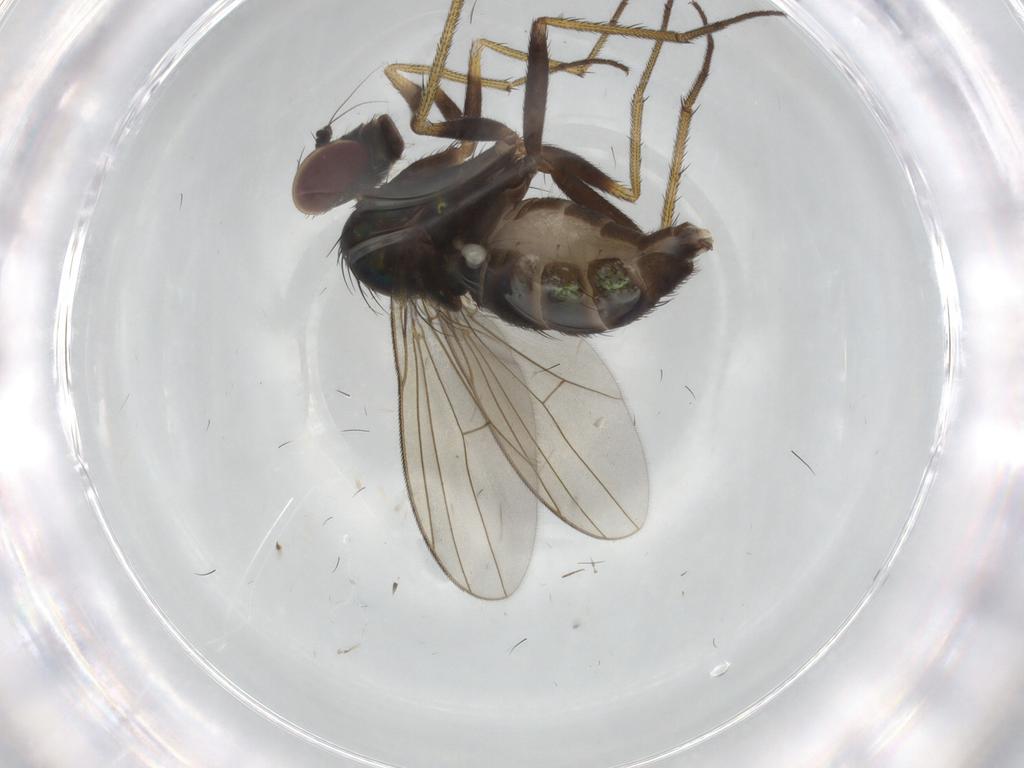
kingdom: Animalia
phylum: Arthropoda
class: Insecta
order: Diptera
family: Dolichopodidae
